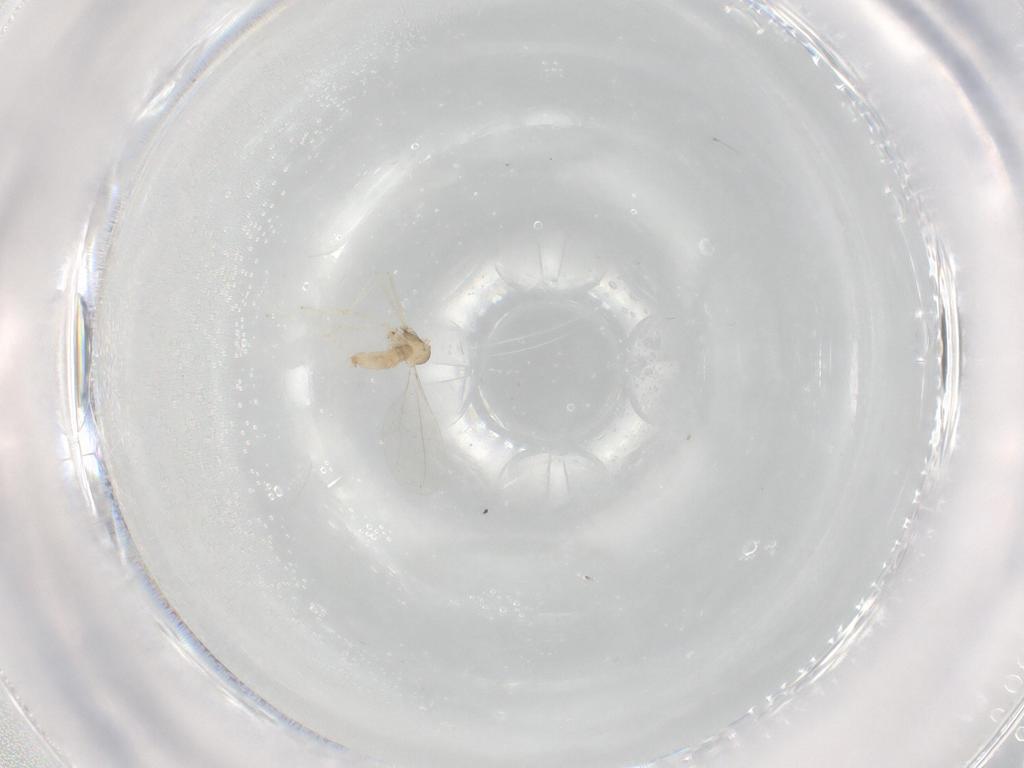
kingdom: Animalia
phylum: Arthropoda
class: Insecta
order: Diptera
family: Cecidomyiidae
